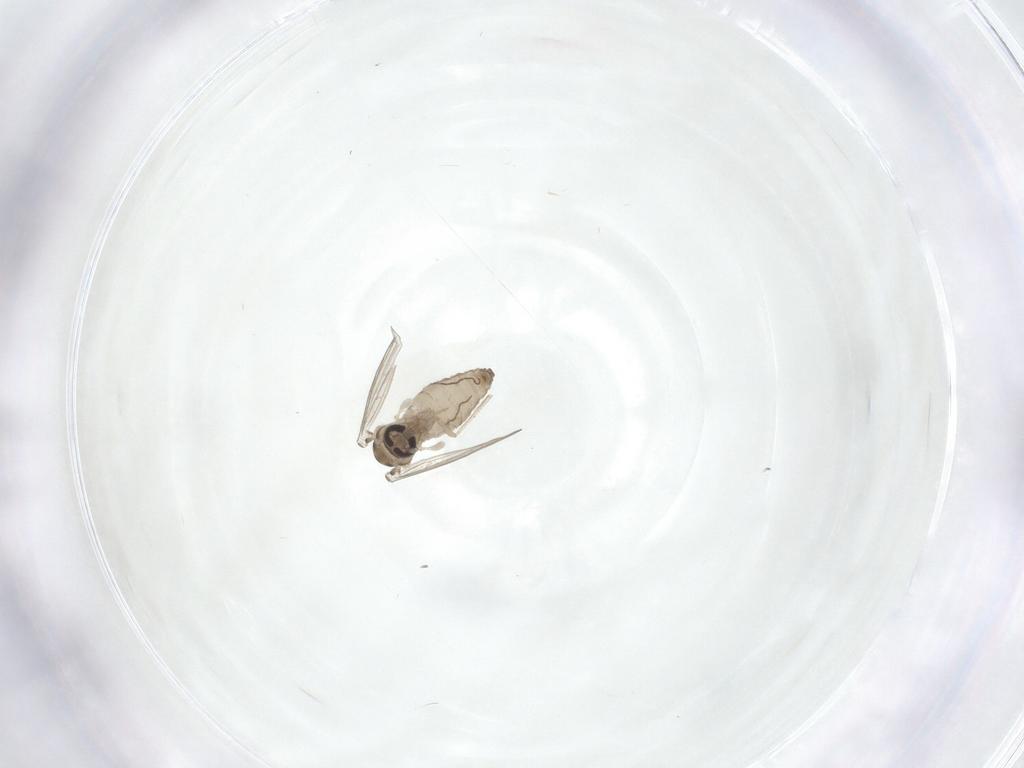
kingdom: Animalia
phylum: Arthropoda
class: Insecta
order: Diptera
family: Psychodidae
